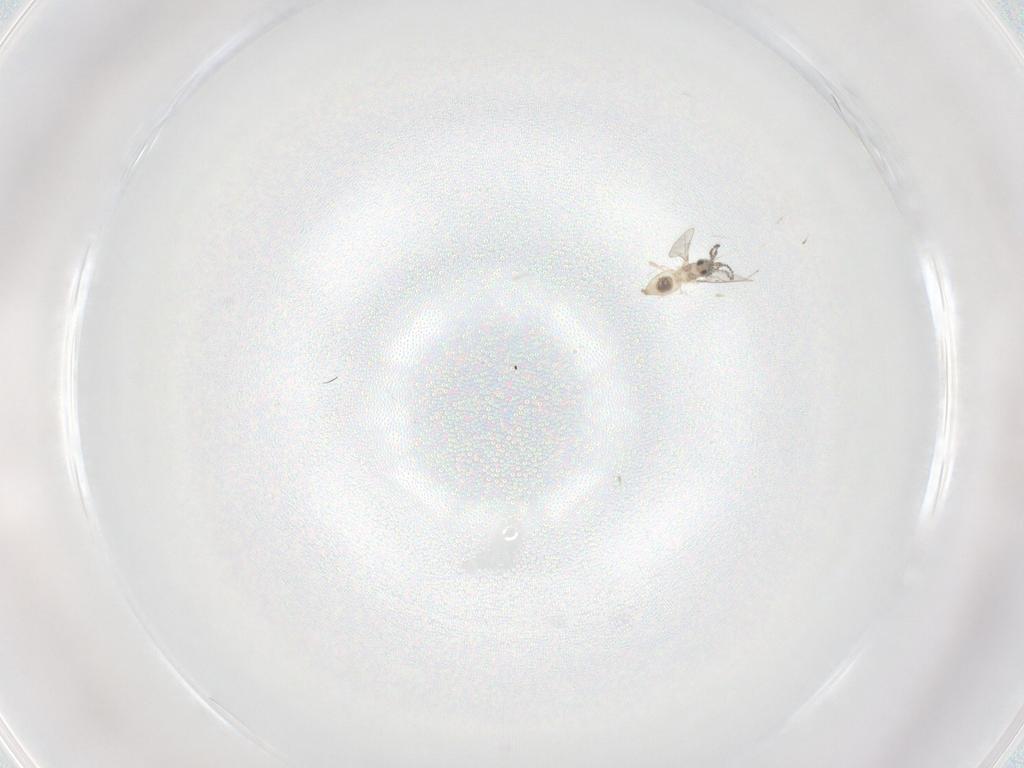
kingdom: Animalia
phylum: Arthropoda
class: Insecta
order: Diptera
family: Cecidomyiidae
